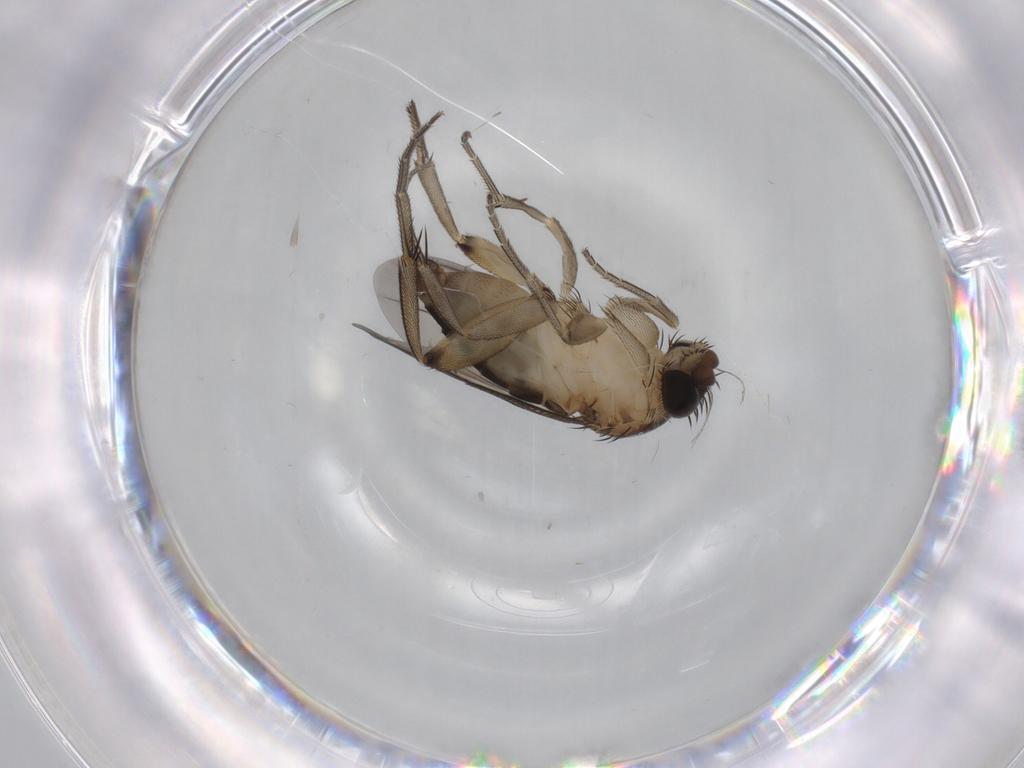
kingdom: Animalia
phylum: Arthropoda
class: Insecta
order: Diptera
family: Phoridae
